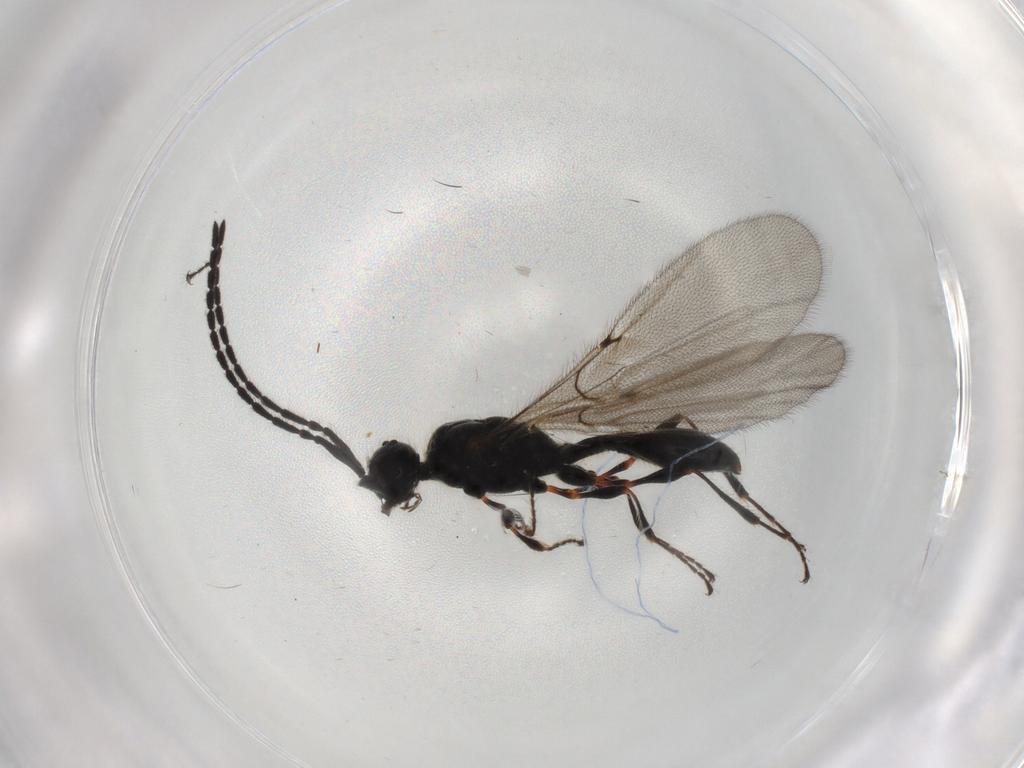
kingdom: Animalia
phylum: Arthropoda
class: Insecta
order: Hymenoptera
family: Diapriidae
